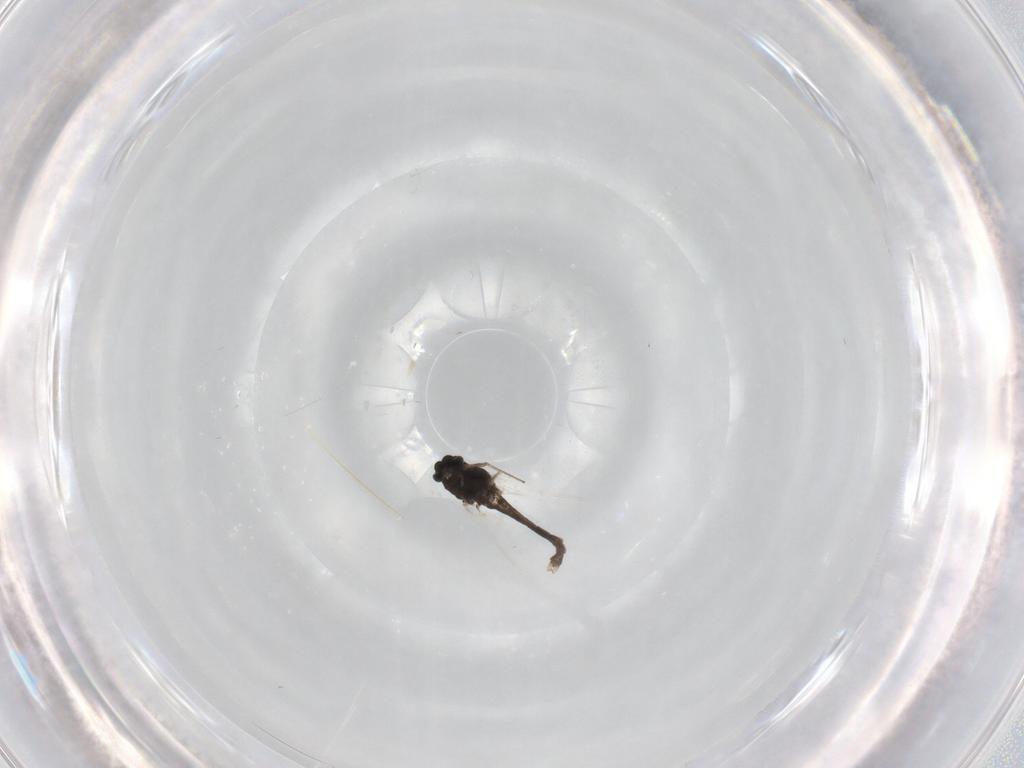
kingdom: Animalia
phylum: Arthropoda
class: Insecta
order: Diptera
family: Chironomidae
